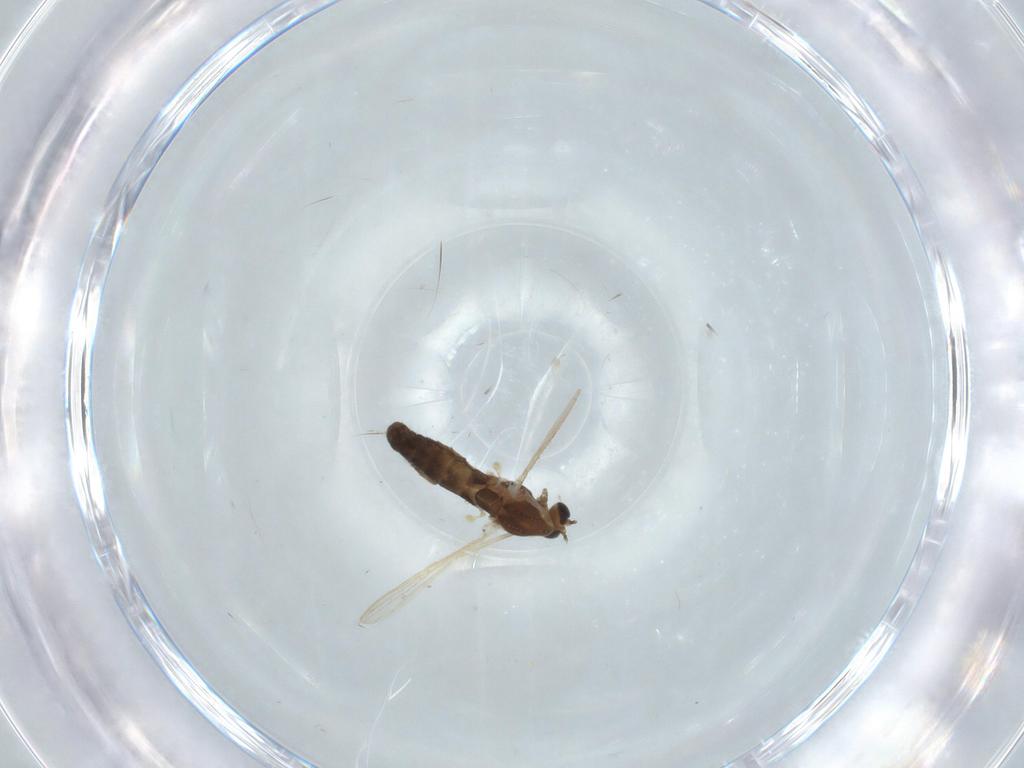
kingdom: Animalia
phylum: Arthropoda
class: Insecta
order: Diptera
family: Chironomidae
